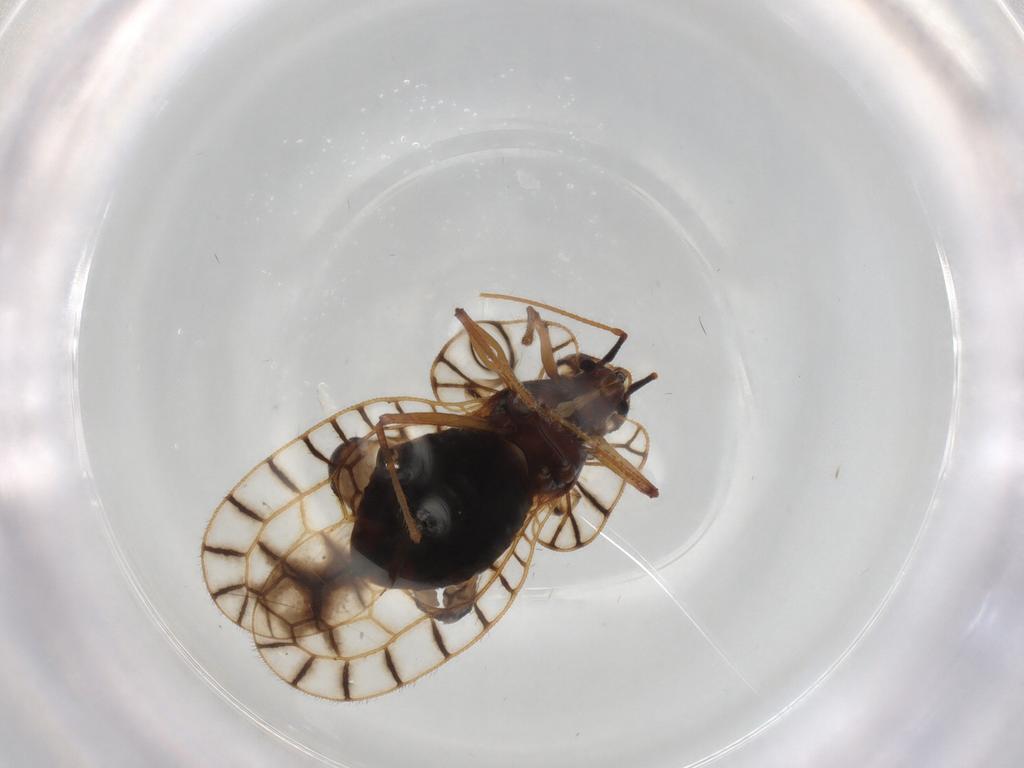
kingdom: Animalia
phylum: Arthropoda
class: Insecta
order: Hemiptera
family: Tingidae
